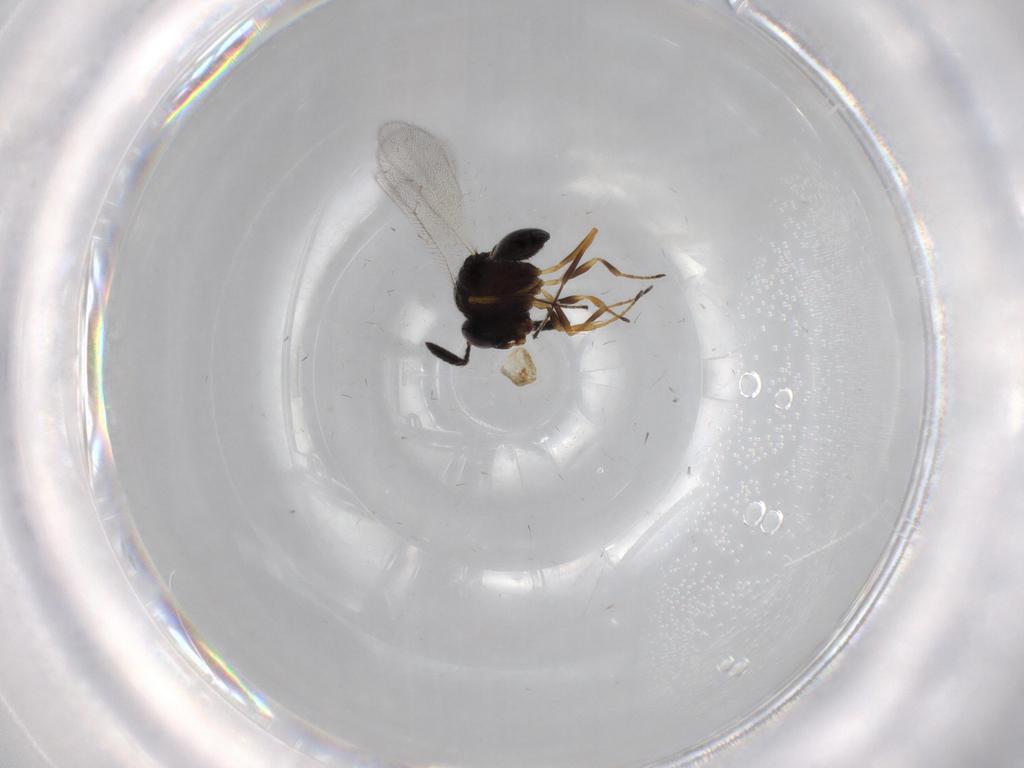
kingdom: Animalia
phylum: Arthropoda
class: Insecta
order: Hymenoptera
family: Scelionidae
